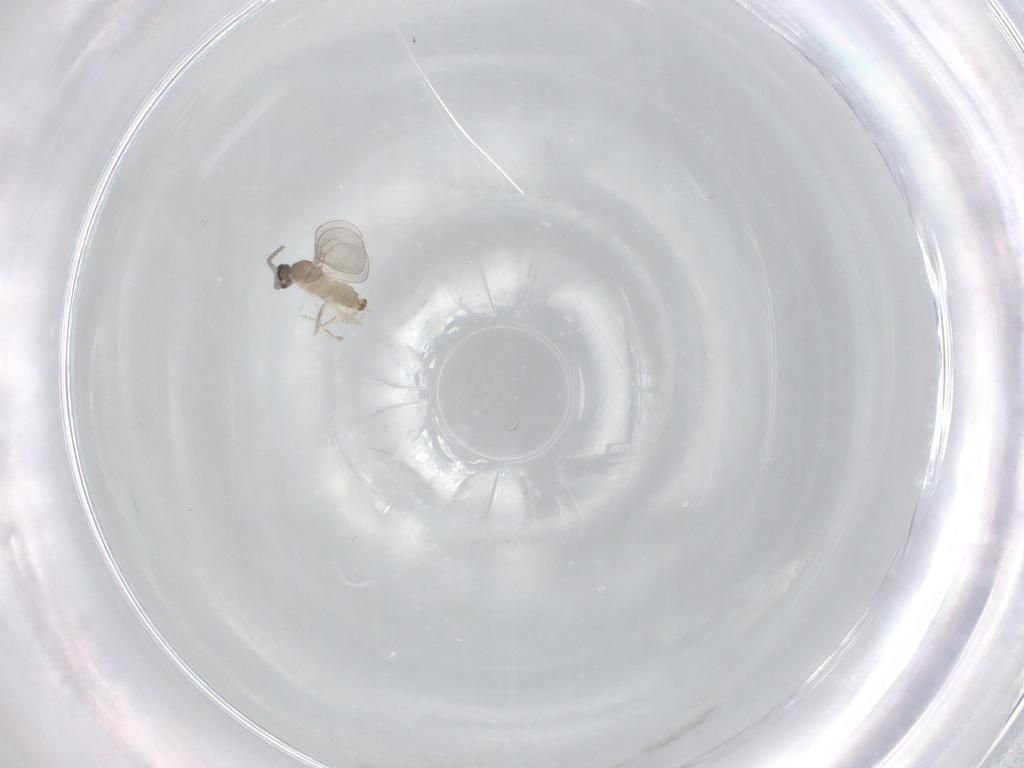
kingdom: Animalia
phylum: Arthropoda
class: Insecta
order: Diptera
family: Cecidomyiidae
